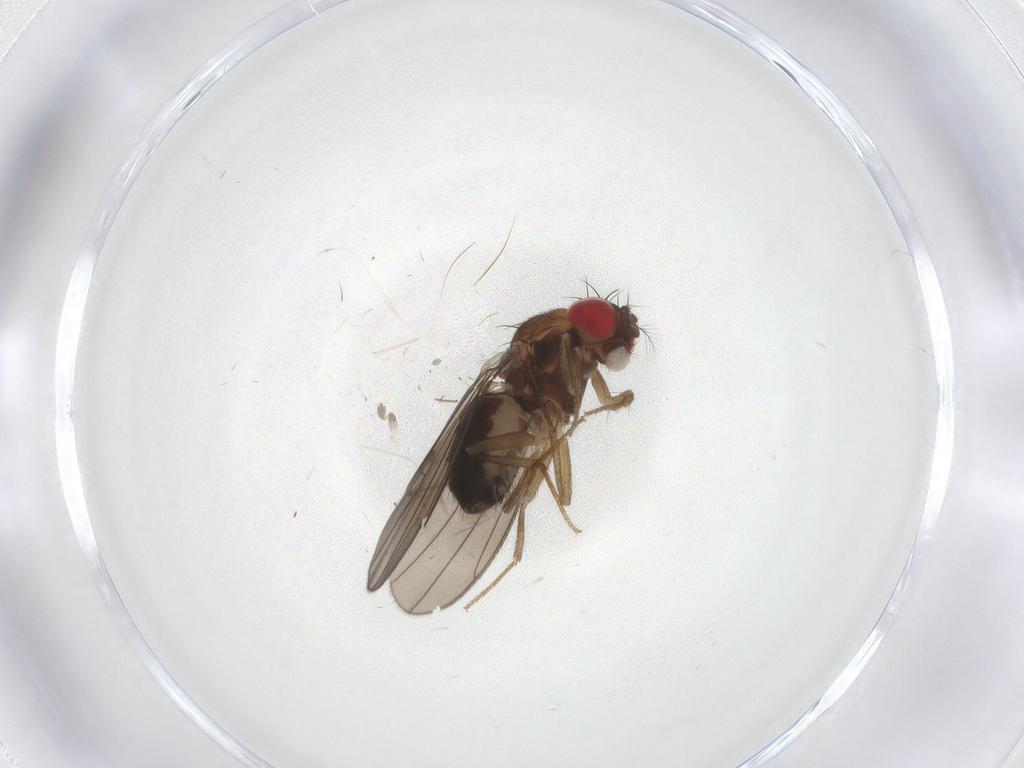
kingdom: Animalia
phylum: Arthropoda
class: Insecta
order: Diptera
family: Drosophilidae
